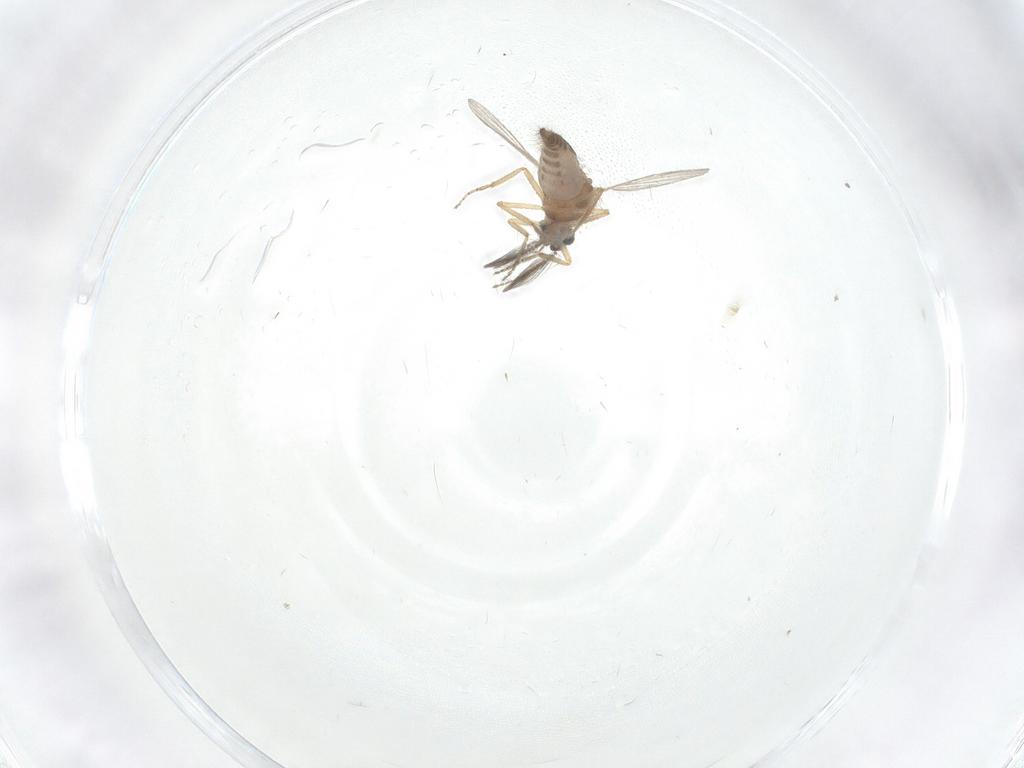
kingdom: Animalia
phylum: Arthropoda
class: Insecta
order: Diptera
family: Ceratopogonidae
